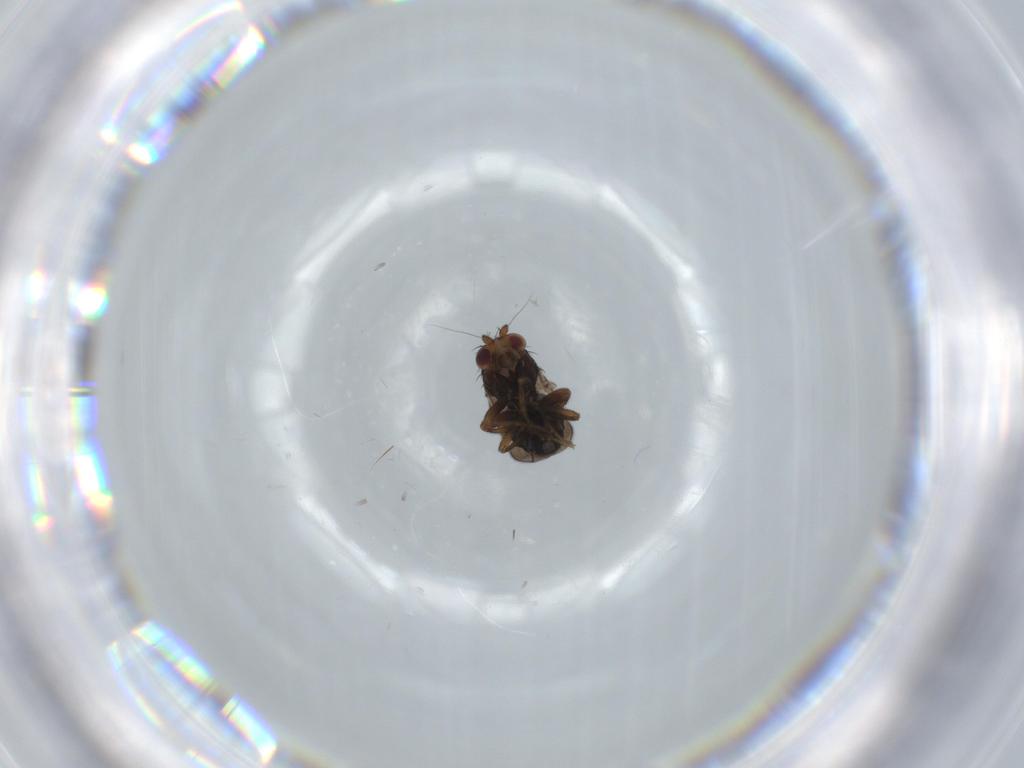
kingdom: Animalia
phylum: Arthropoda
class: Insecta
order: Diptera
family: Sphaeroceridae
